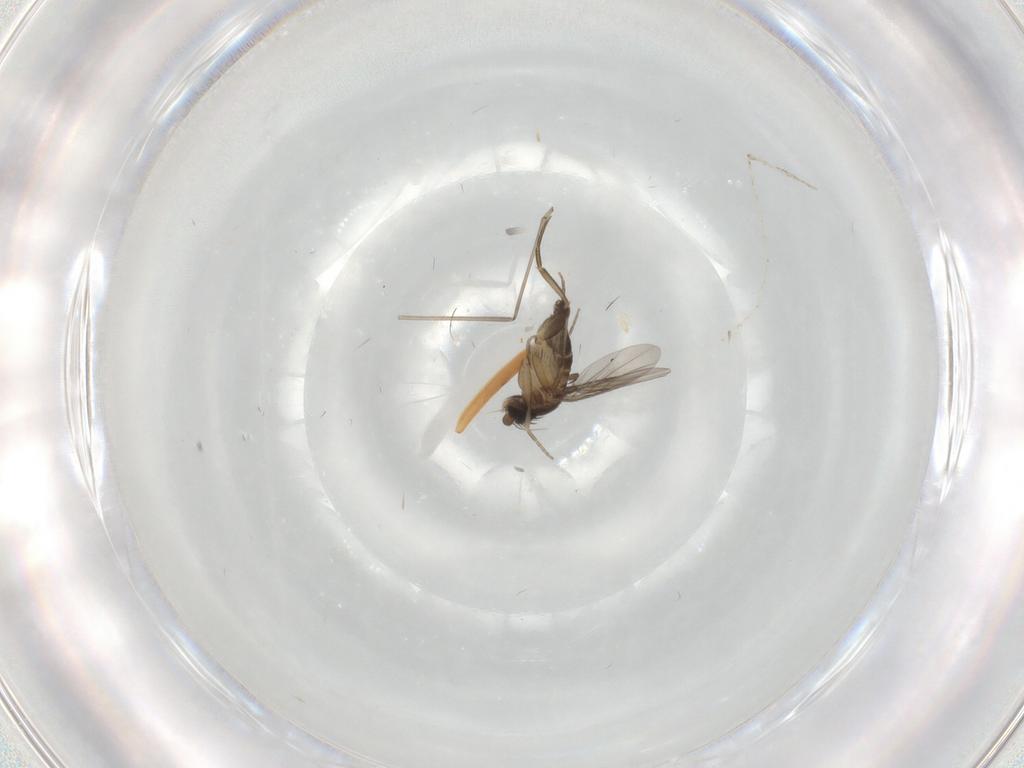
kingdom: Animalia
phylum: Arthropoda
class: Insecta
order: Diptera
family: Phoridae
